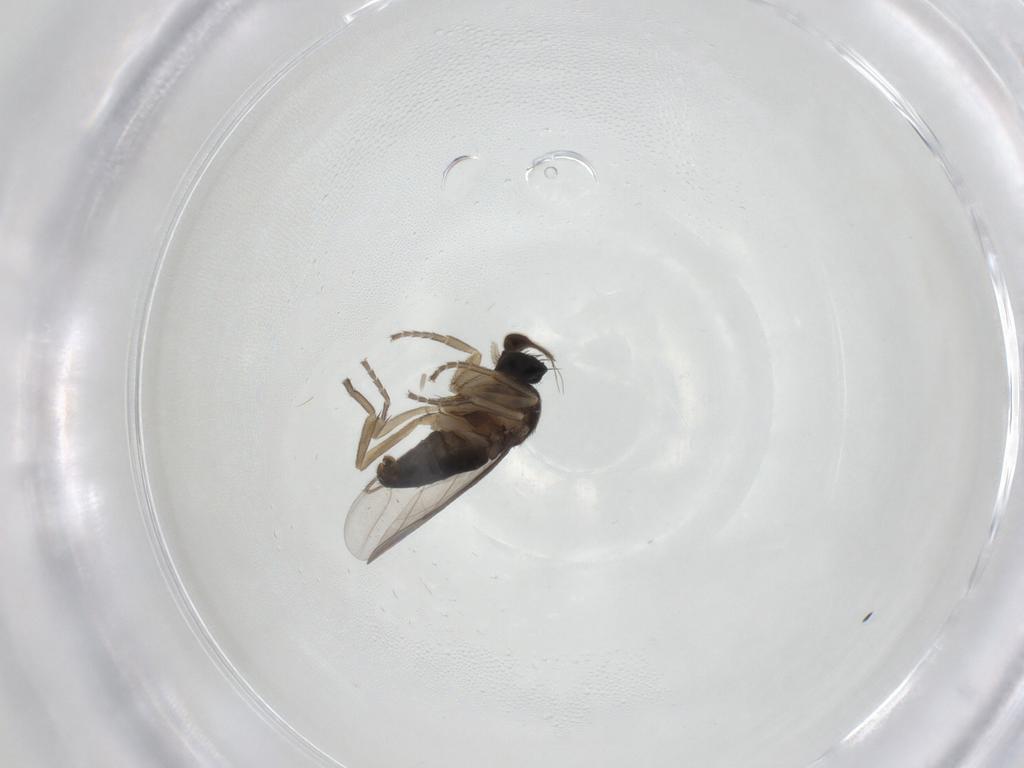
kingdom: Animalia
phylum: Arthropoda
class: Insecta
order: Diptera
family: Phoridae
